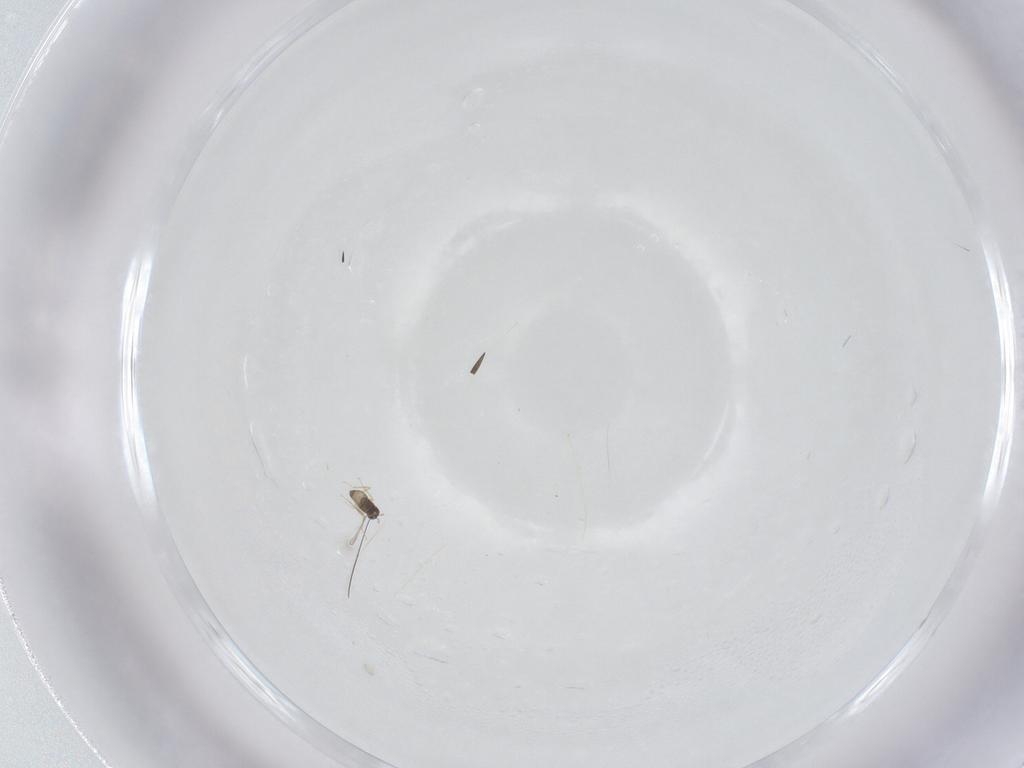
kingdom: Animalia
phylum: Arthropoda
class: Insecta
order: Hymenoptera
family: Mymaridae
